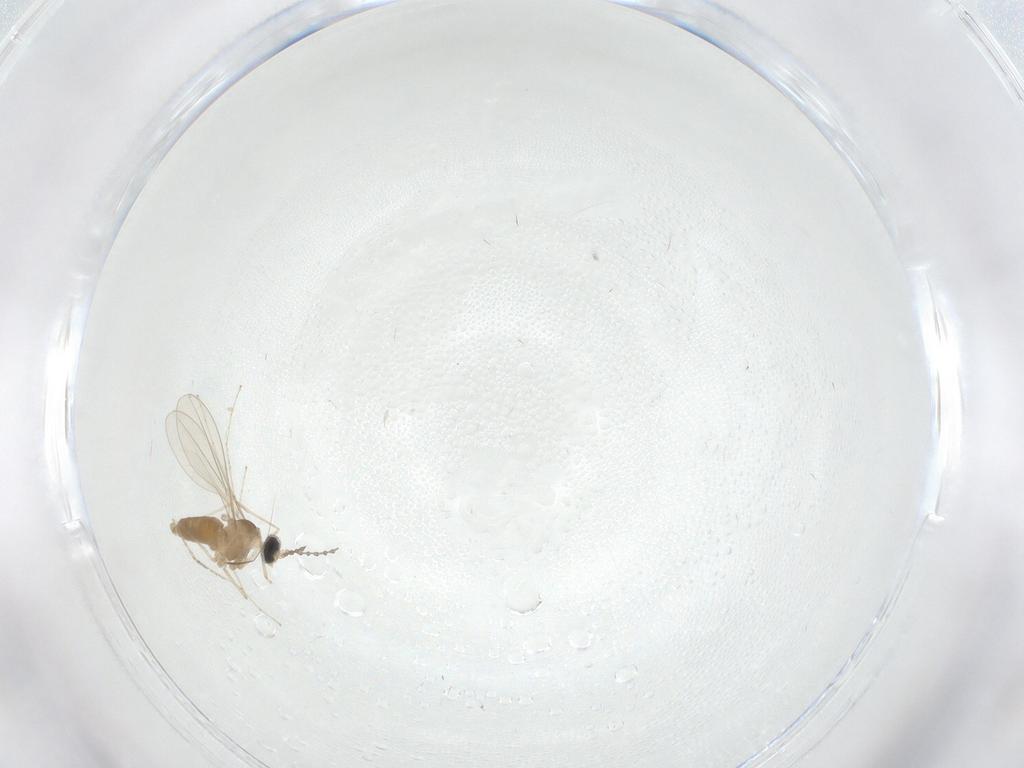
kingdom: Animalia
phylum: Arthropoda
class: Insecta
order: Diptera
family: Cecidomyiidae
